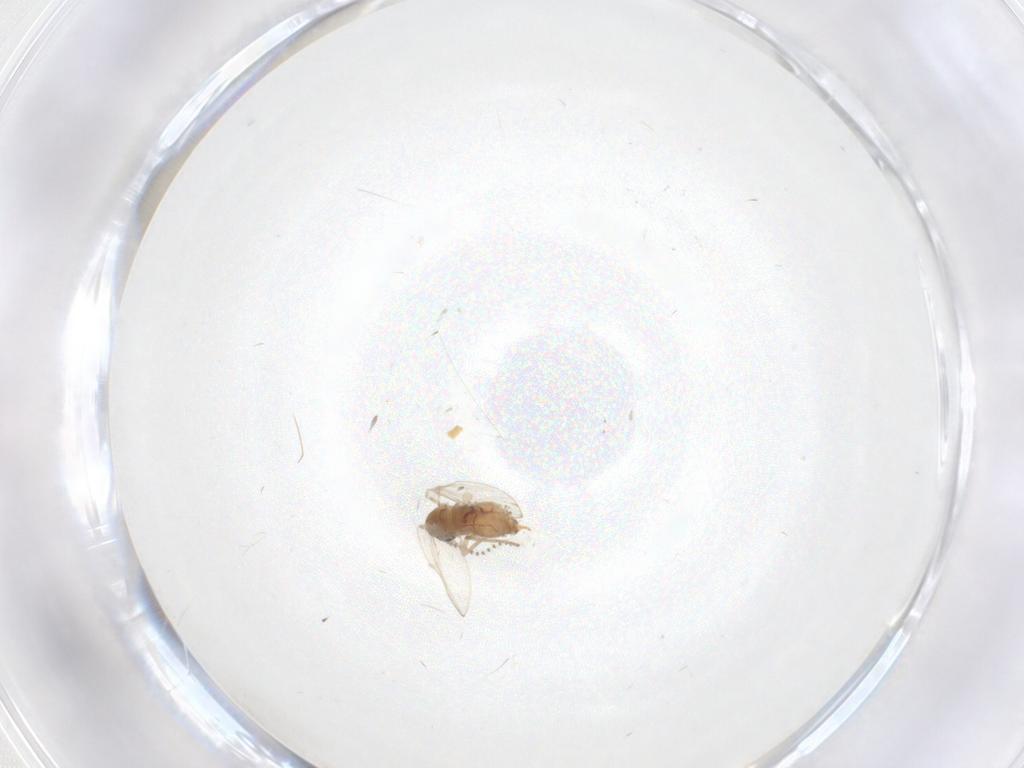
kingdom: Animalia
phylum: Arthropoda
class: Insecta
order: Diptera
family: Psychodidae
